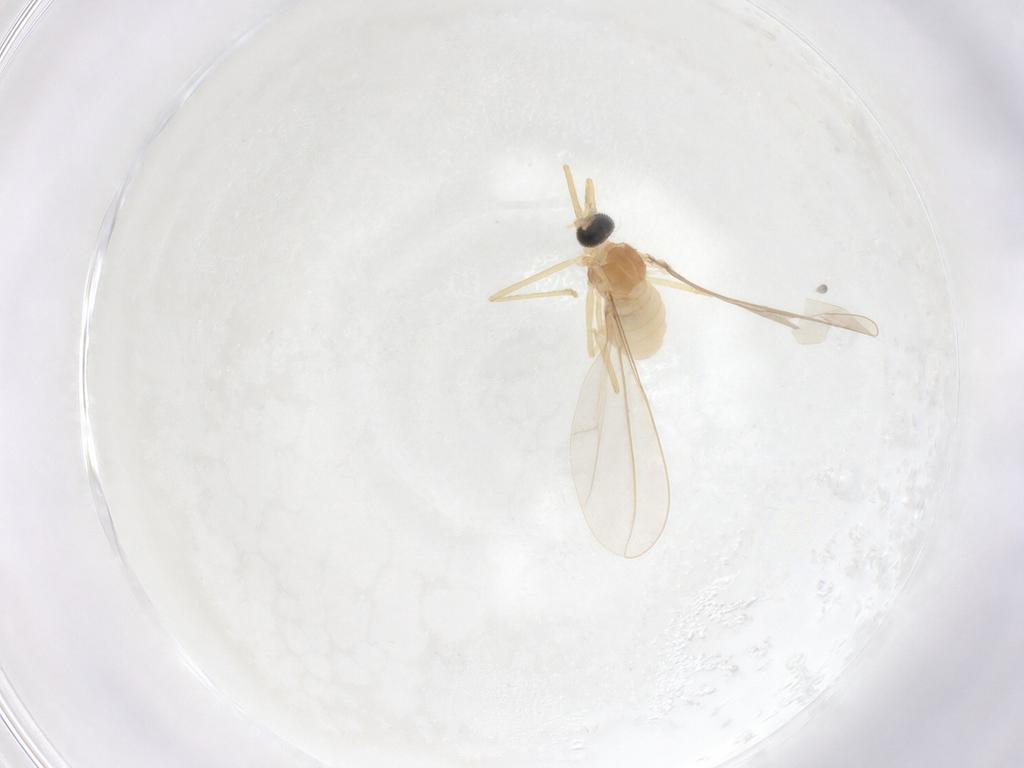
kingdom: Animalia
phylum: Arthropoda
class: Insecta
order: Diptera
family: Cecidomyiidae
